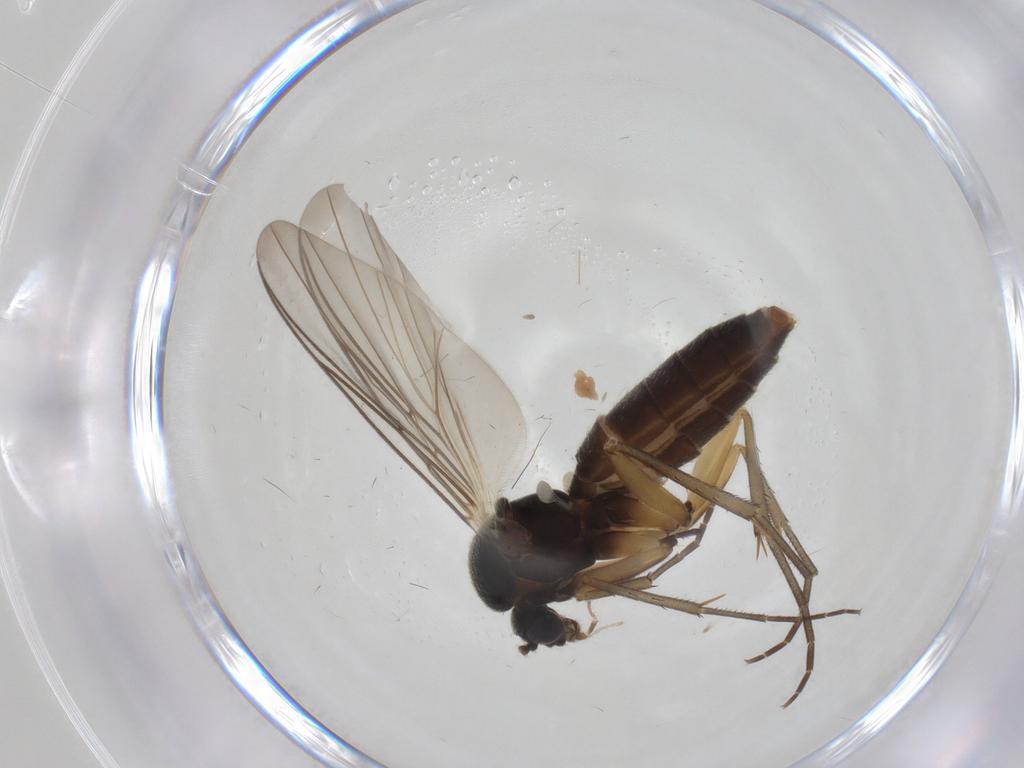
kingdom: Animalia
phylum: Arthropoda
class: Insecta
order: Diptera
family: Mycetophilidae
